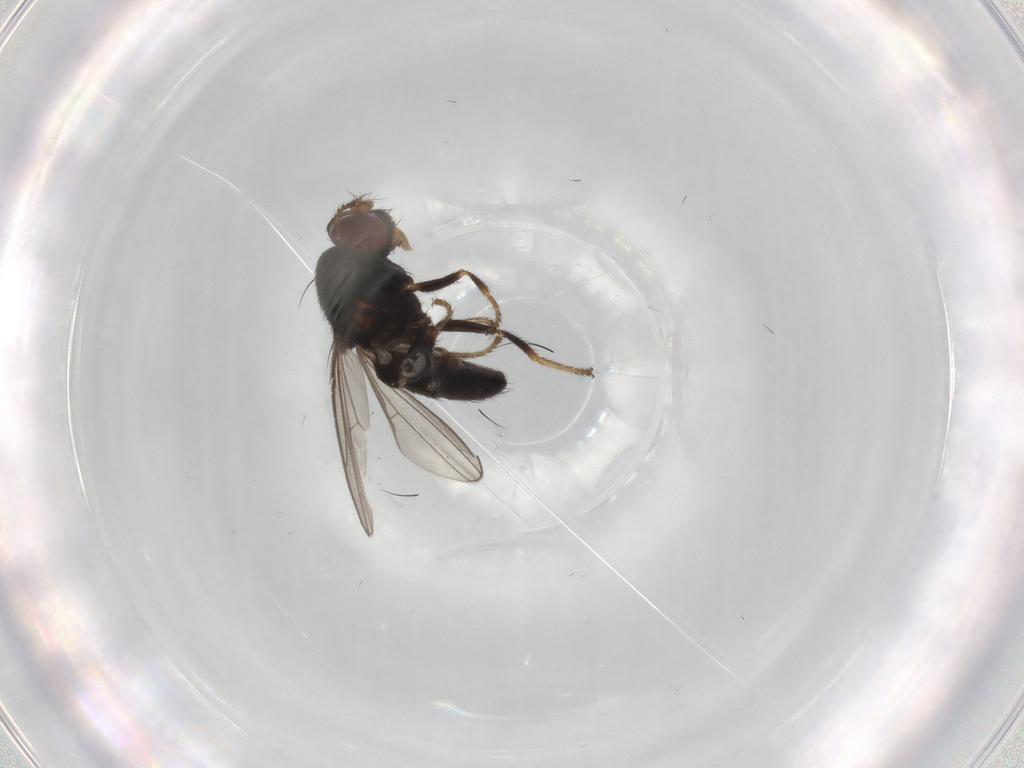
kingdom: Animalia
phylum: Arthropoda
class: Insecta
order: Diptera
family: Ephydridae
